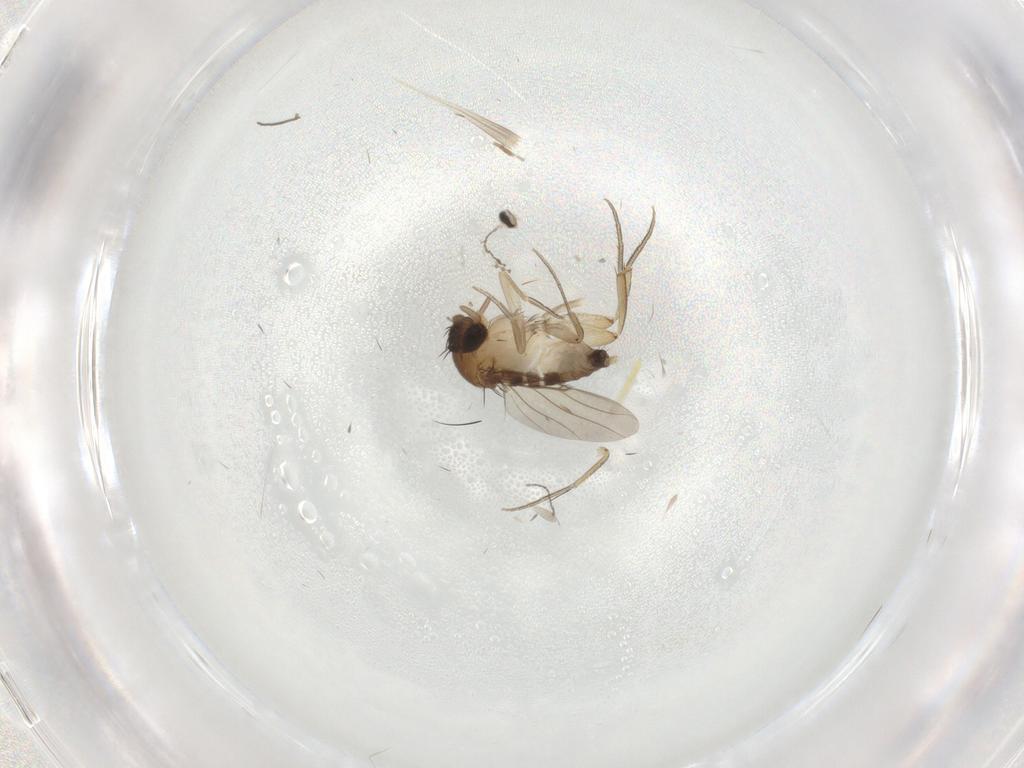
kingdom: Animalia
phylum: Arthropoda
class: Insecta
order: Diptera
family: Phoridae
